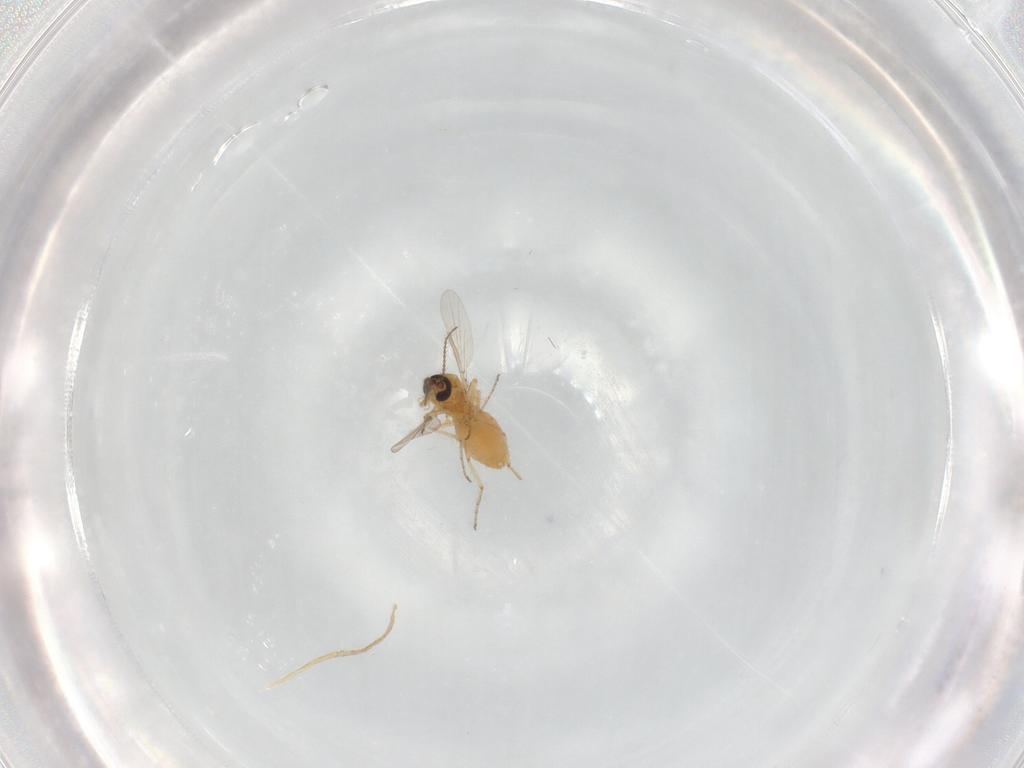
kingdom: Animalia
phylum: Arthropoda
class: Insecta
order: Diptera
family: Ceratopogonidae
